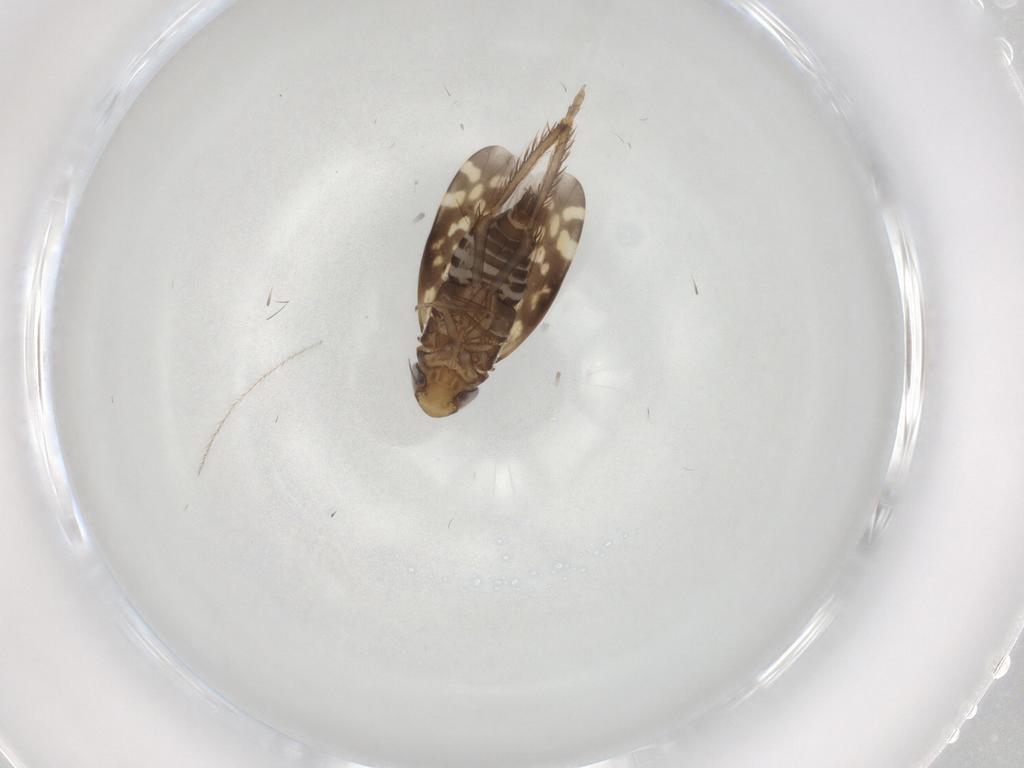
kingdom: Animalia
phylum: Arthropoda
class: Insecta
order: Hemiptera
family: Cicadellidae
